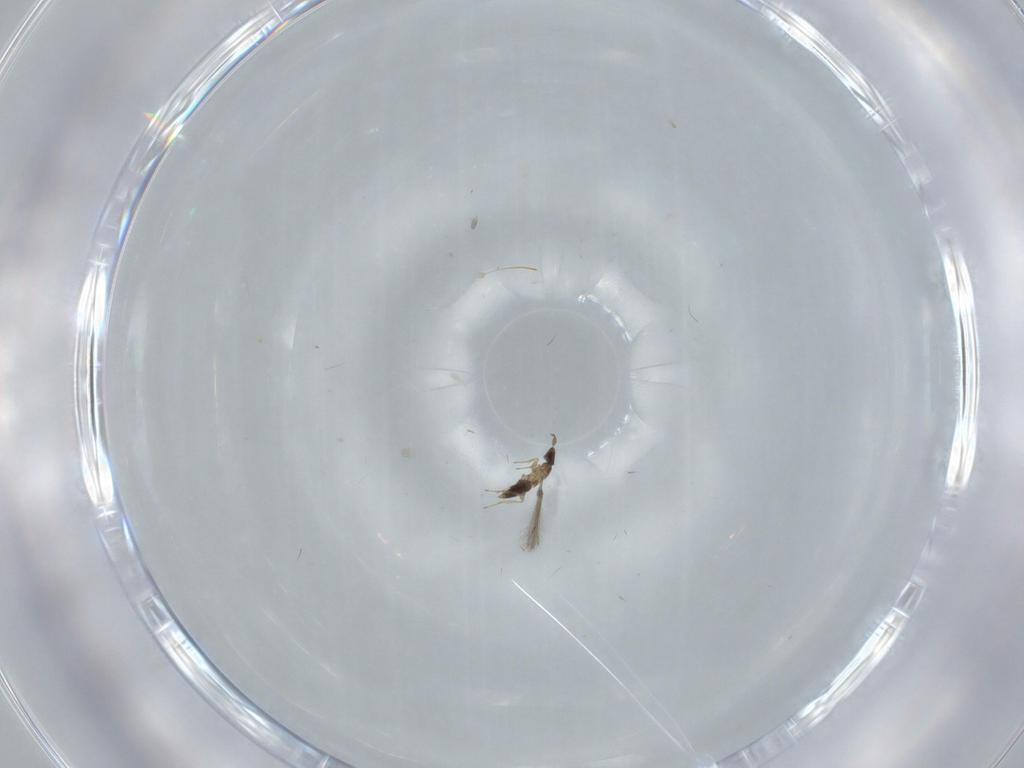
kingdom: Animalia
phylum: Arthropoda
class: Insecta
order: Hymenoptera
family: Mymaridae
